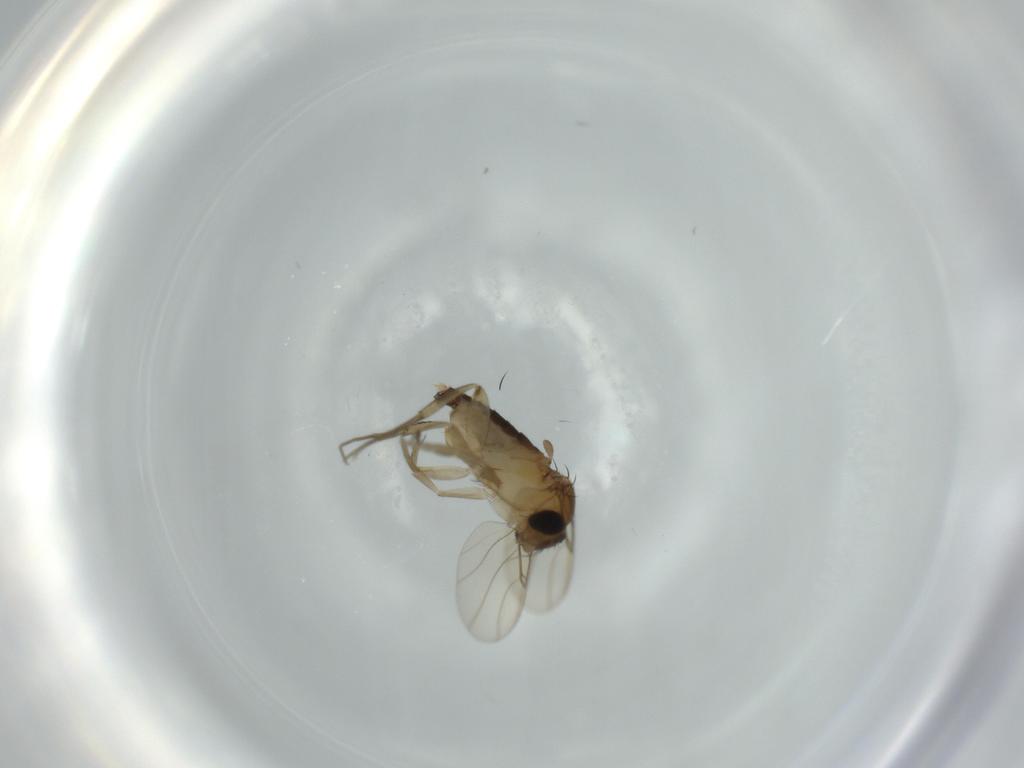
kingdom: Animalia
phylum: Arthropoda
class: Insecta
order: Diptera
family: Phoridae
